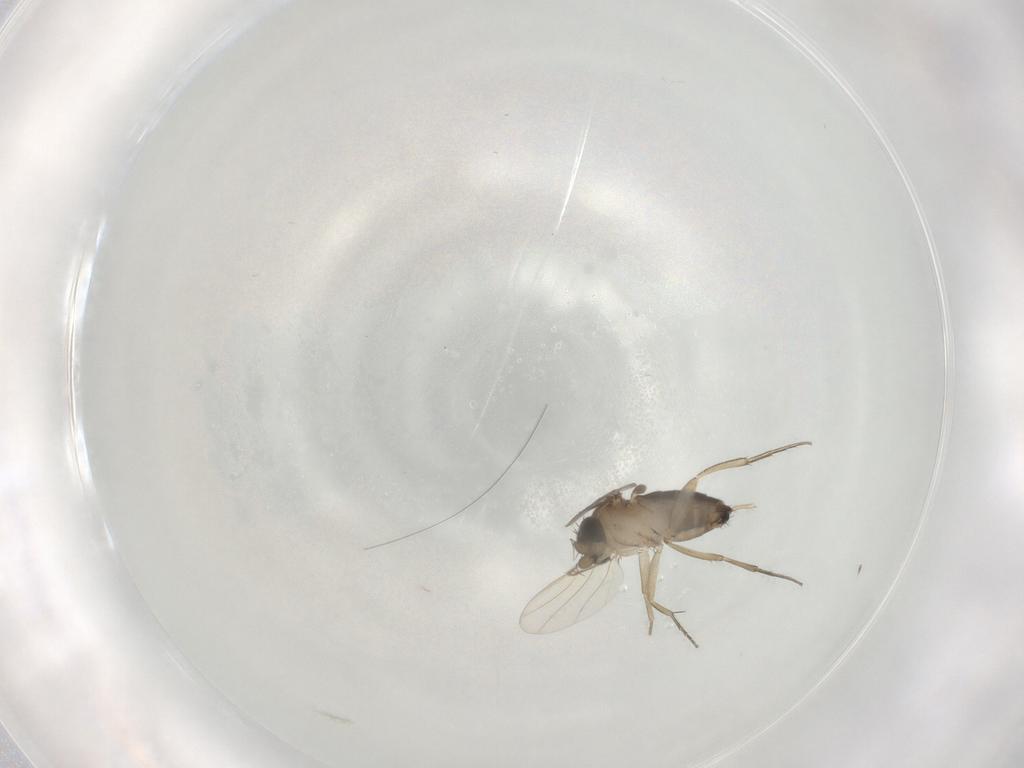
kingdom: Animalia
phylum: Arthropoda
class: Insecta
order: Diptera
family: Phoridae
